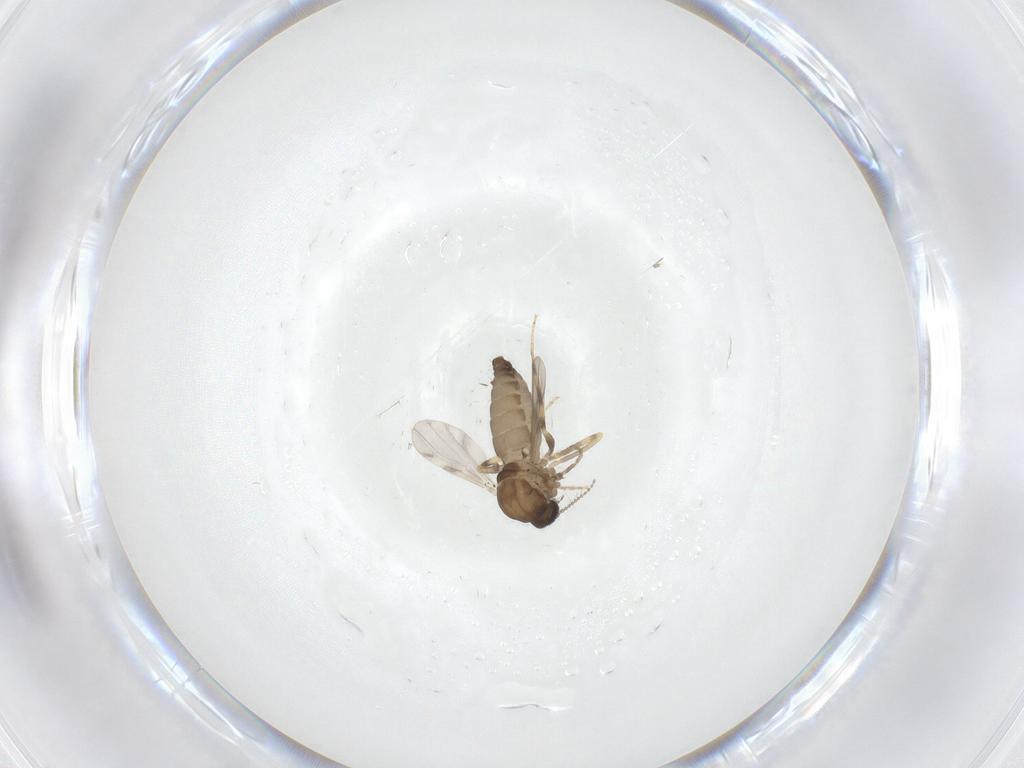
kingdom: Animalia
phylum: Arthropoda
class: Insecta
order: Diptera
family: Ceratopogonidae
